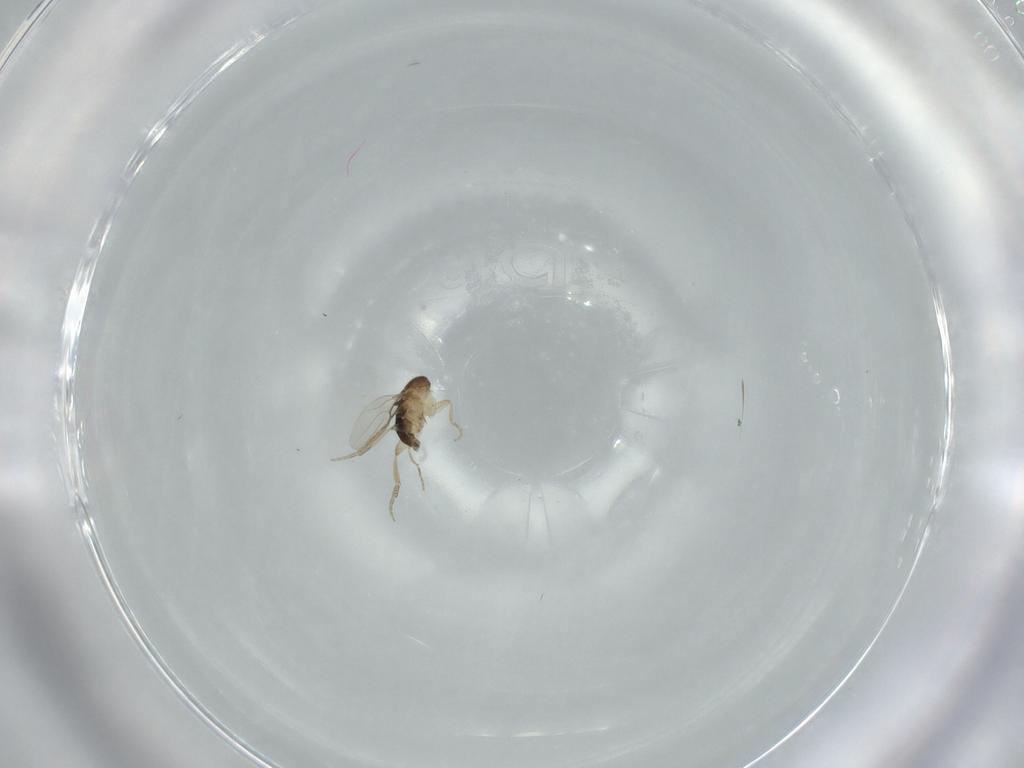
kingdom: Animalia
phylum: Arthropoda
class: Insecta
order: Diptera
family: Phoridae
